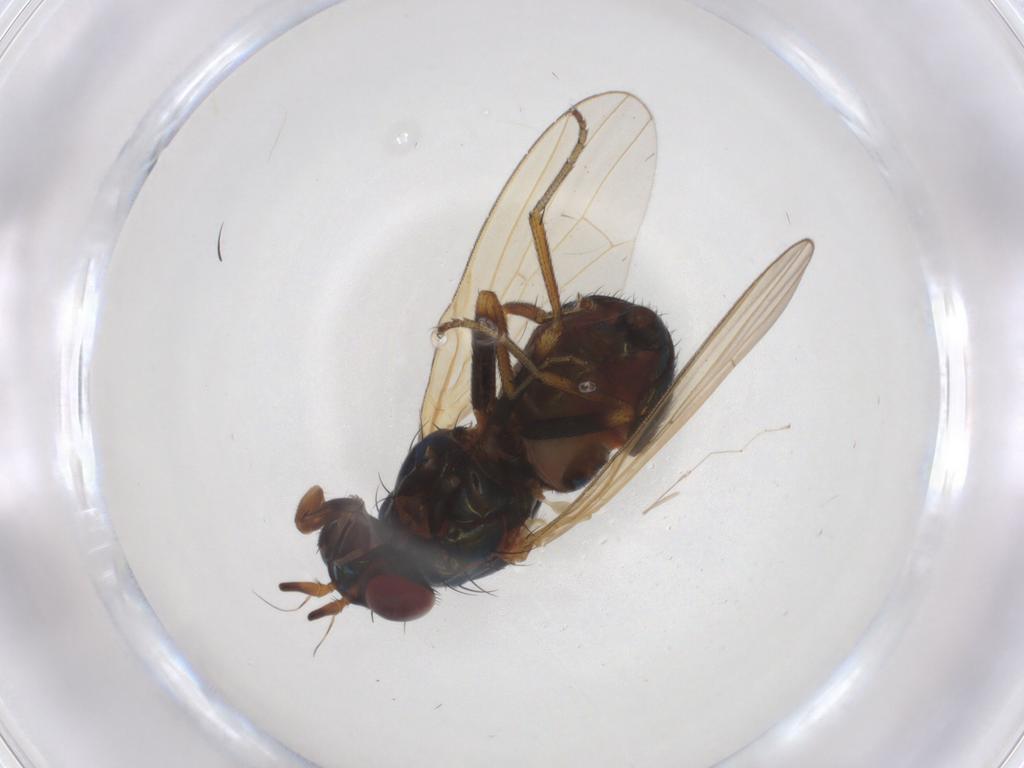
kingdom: Animalia
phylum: Arthropoda
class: Insecta
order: Diptera
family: Lauxaniidae
